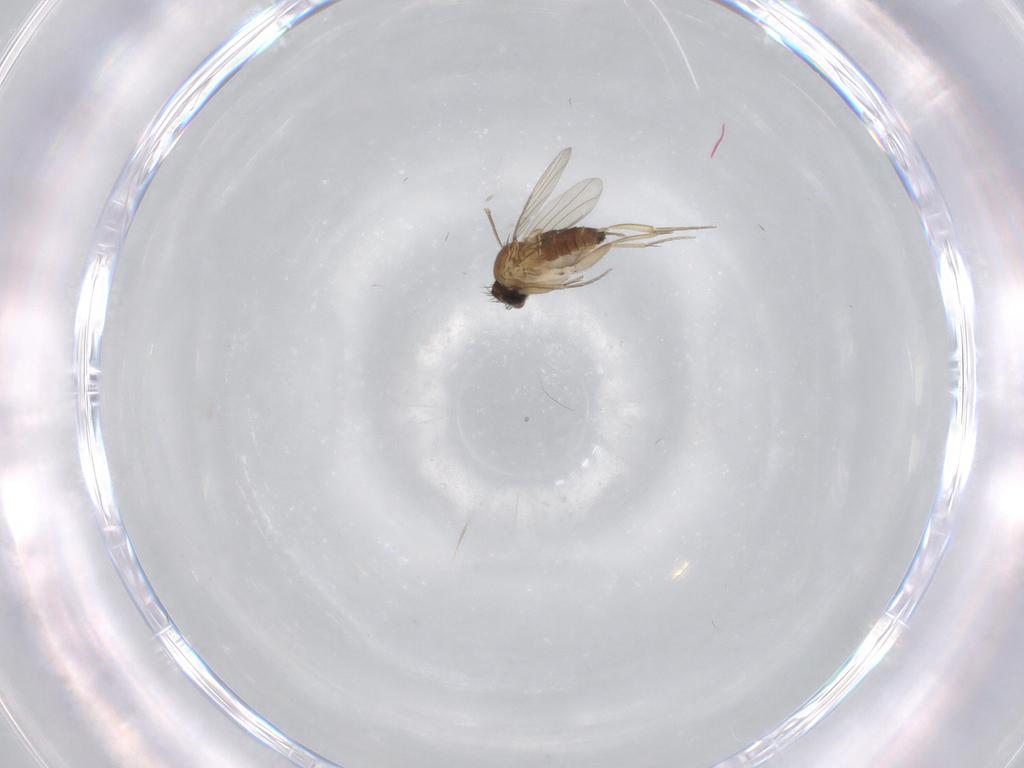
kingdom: Animalia
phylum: Arthropoda
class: Insecta
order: Diptera
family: Phoridae
